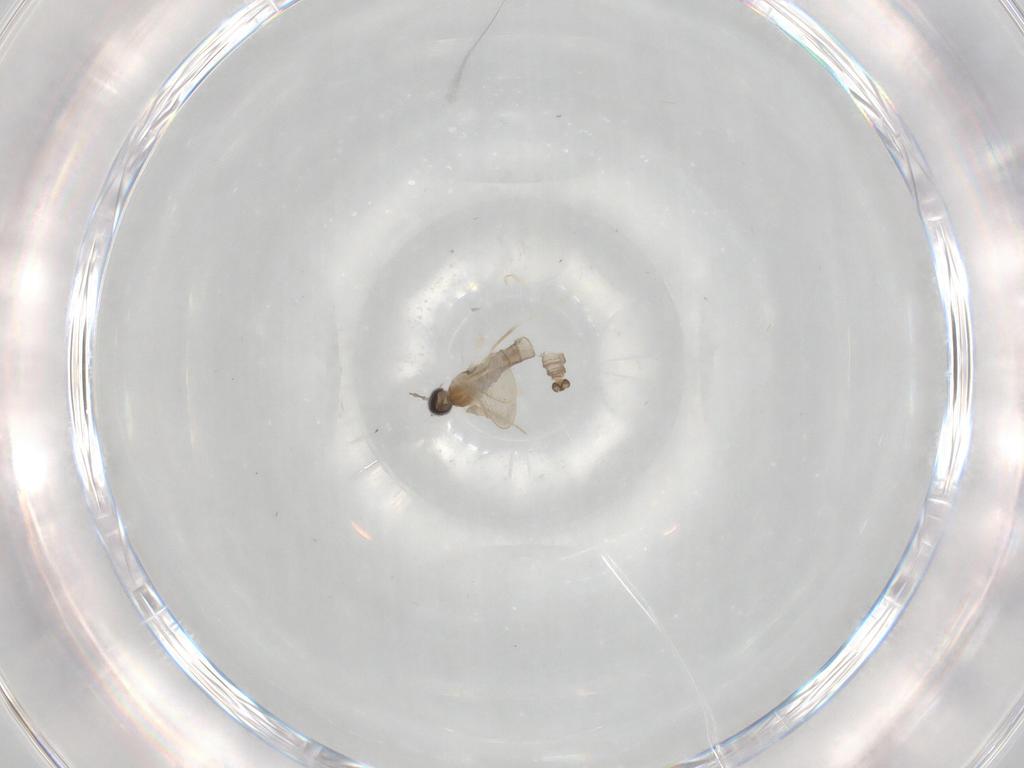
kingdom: Animalia
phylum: Arthropoda
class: Insecta
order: Diptera
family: Cecidomyiidae
